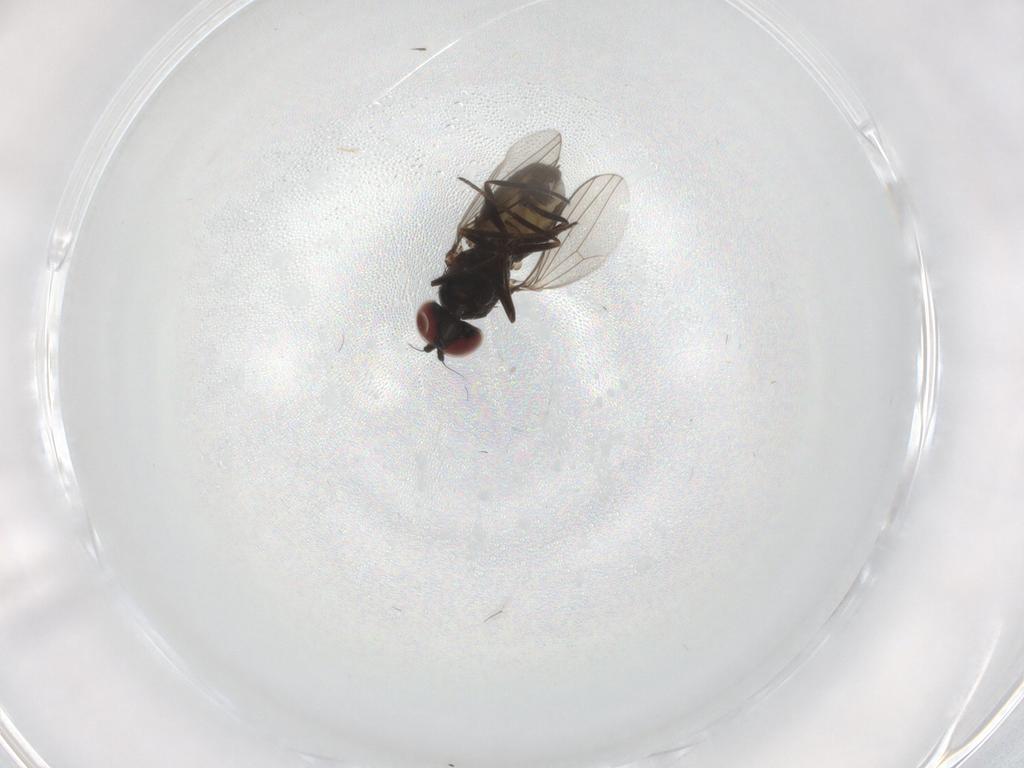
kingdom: Animalia
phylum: Arthropoda
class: Insecta
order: Diptera
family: Dolichopodidae
